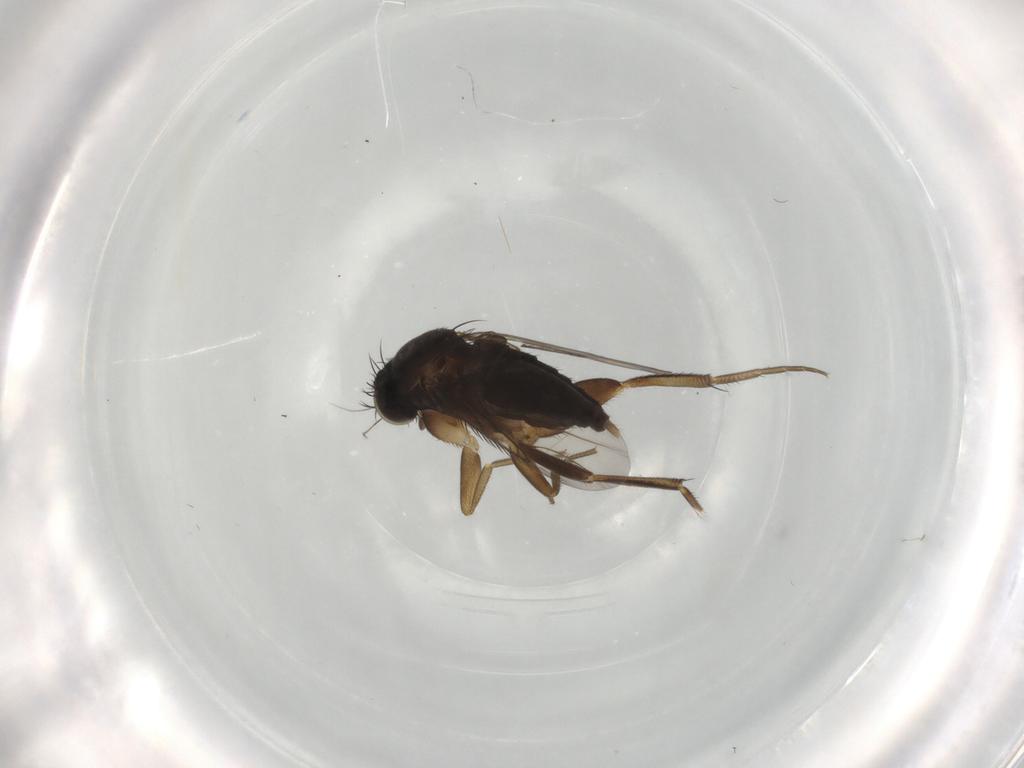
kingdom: Animalia
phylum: Arthropoda
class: Insecta
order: Diptera
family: Phoridae
